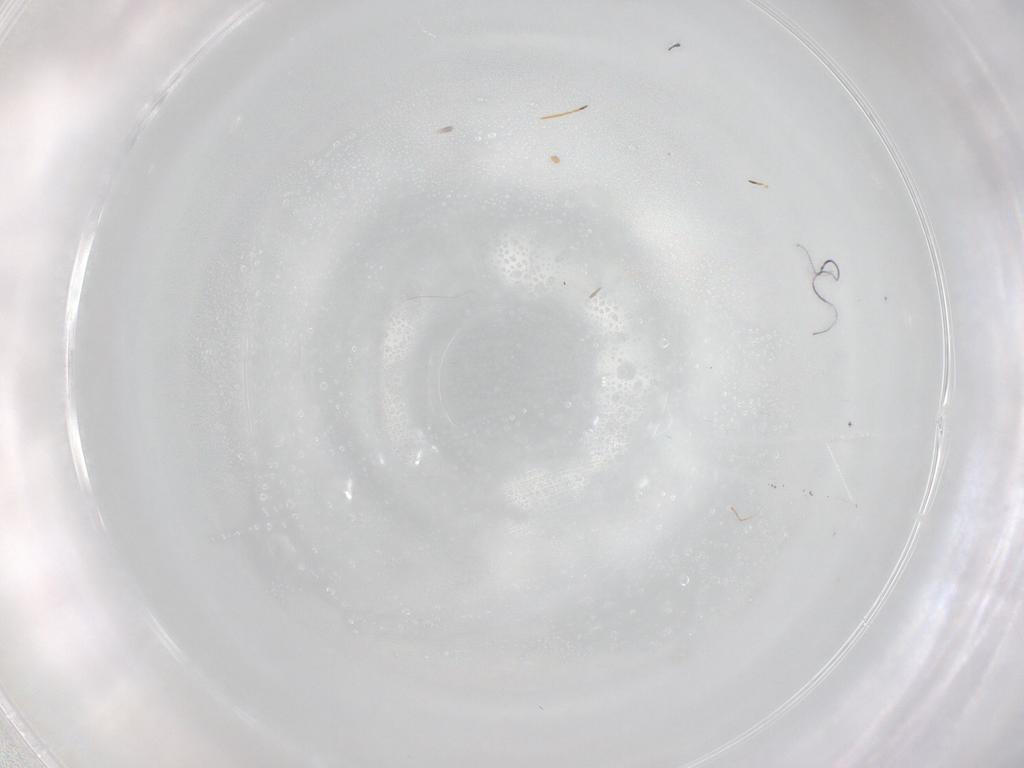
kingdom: Animalia
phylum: Arthropoda
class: Insecta
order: Hymenoptera
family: Mymaridae
